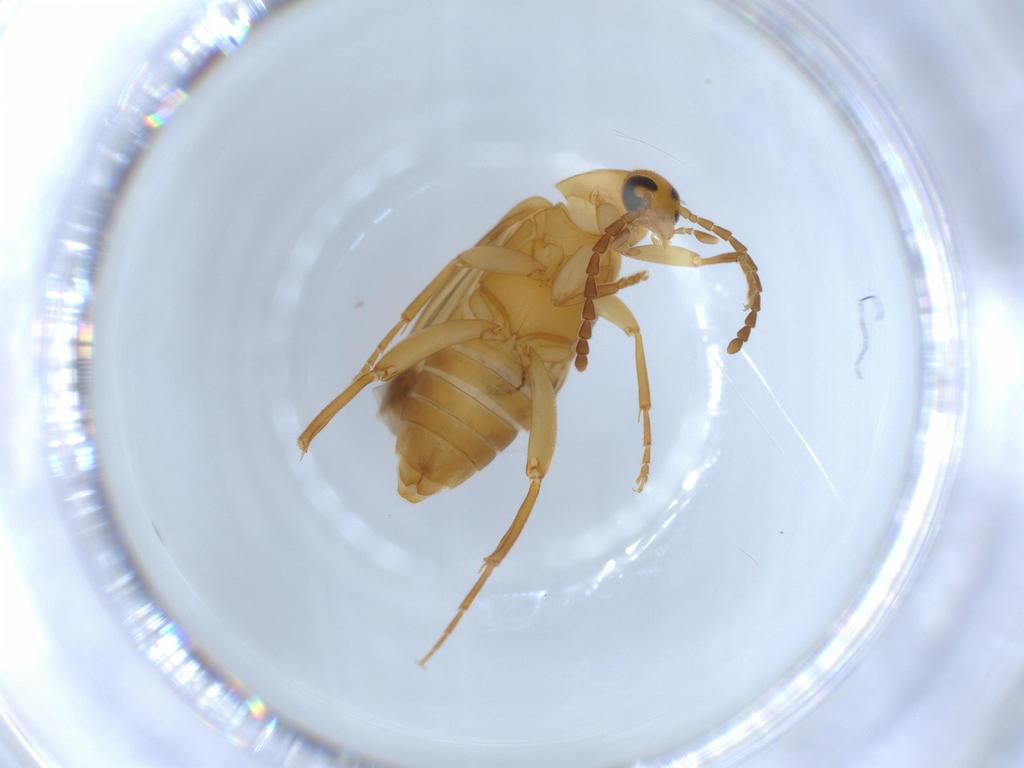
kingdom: Animalia
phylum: Arthropoda
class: Insecta
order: Coleoptera
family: Scraptiidae
